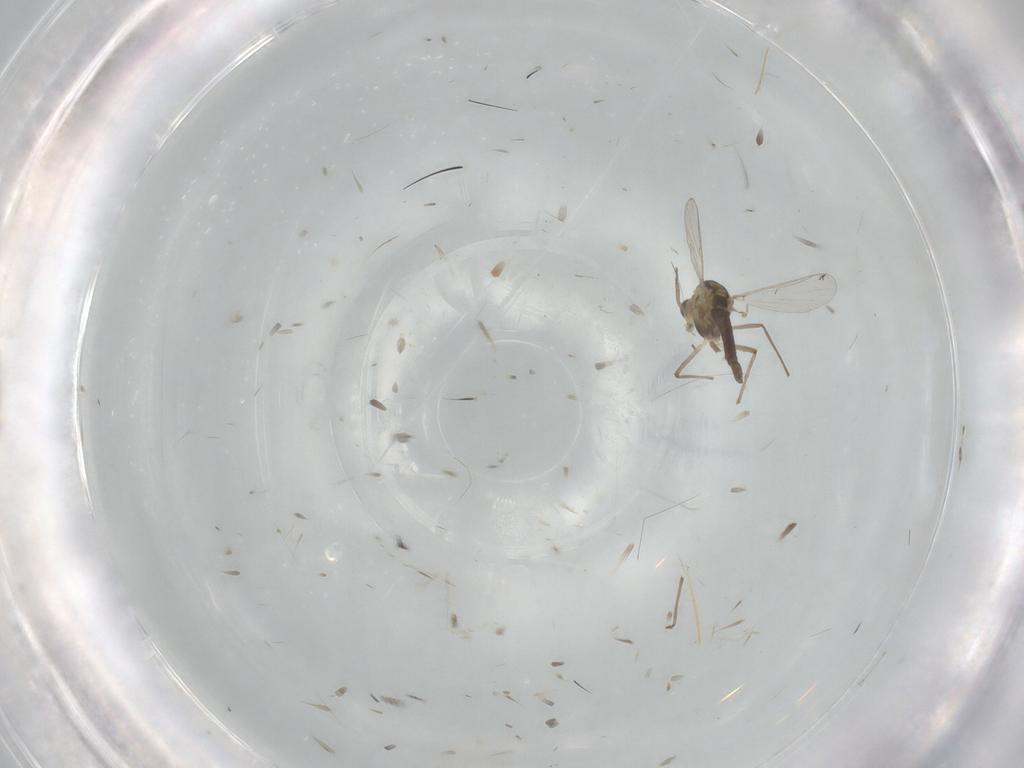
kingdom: Animalia
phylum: Arthropoda
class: Insecta
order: Diptera
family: Cecidomyiidae
